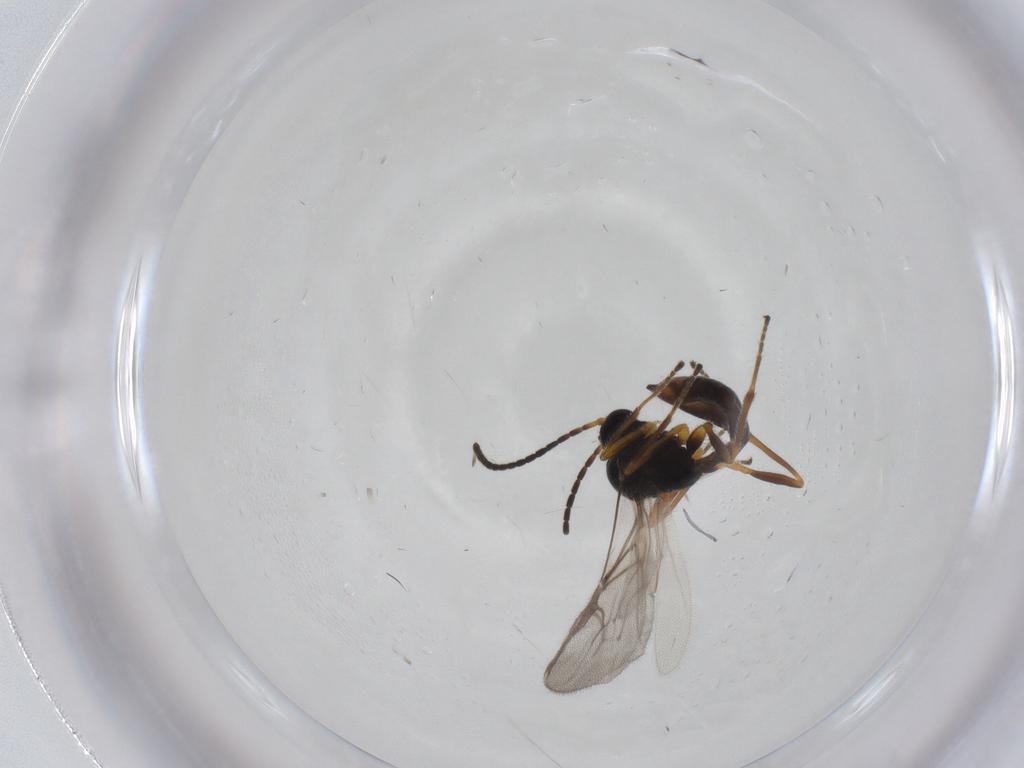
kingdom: Animalia
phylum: Arthropoda
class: Insecta
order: Hymenoptera
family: Braconidae
